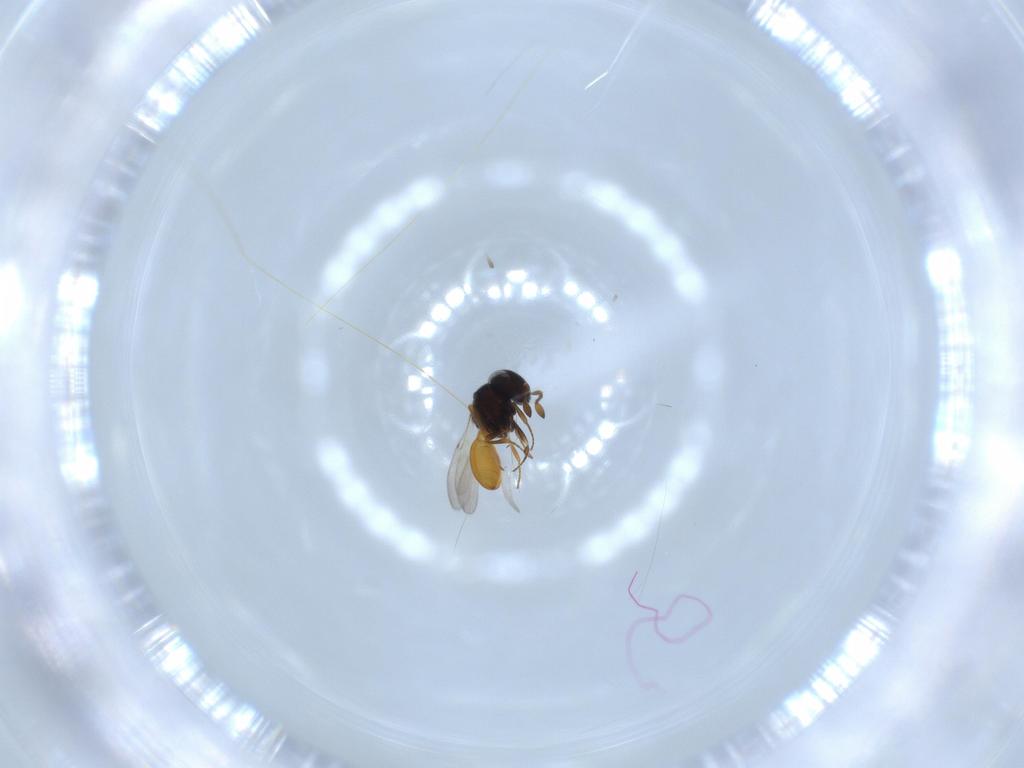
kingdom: Animalia
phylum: Arthropoda
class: Insecta
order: Hymenoptera
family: Scelionidae
